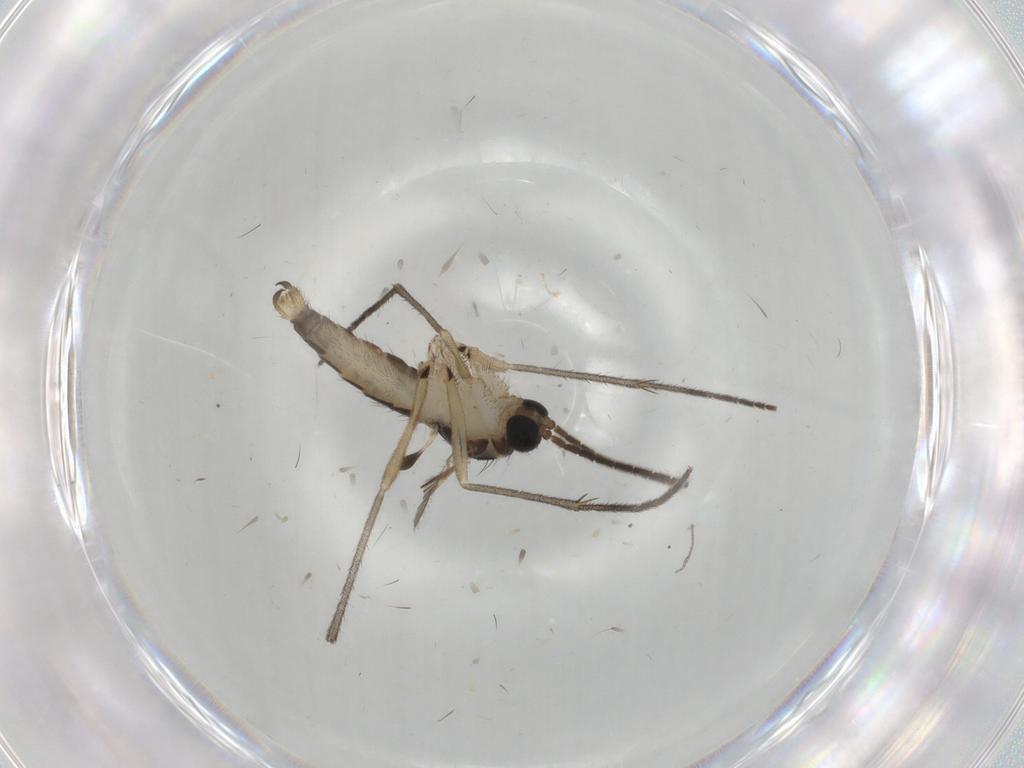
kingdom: Animalia
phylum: Arthropoda
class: Insecta
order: Diptera
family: Sciaridae
